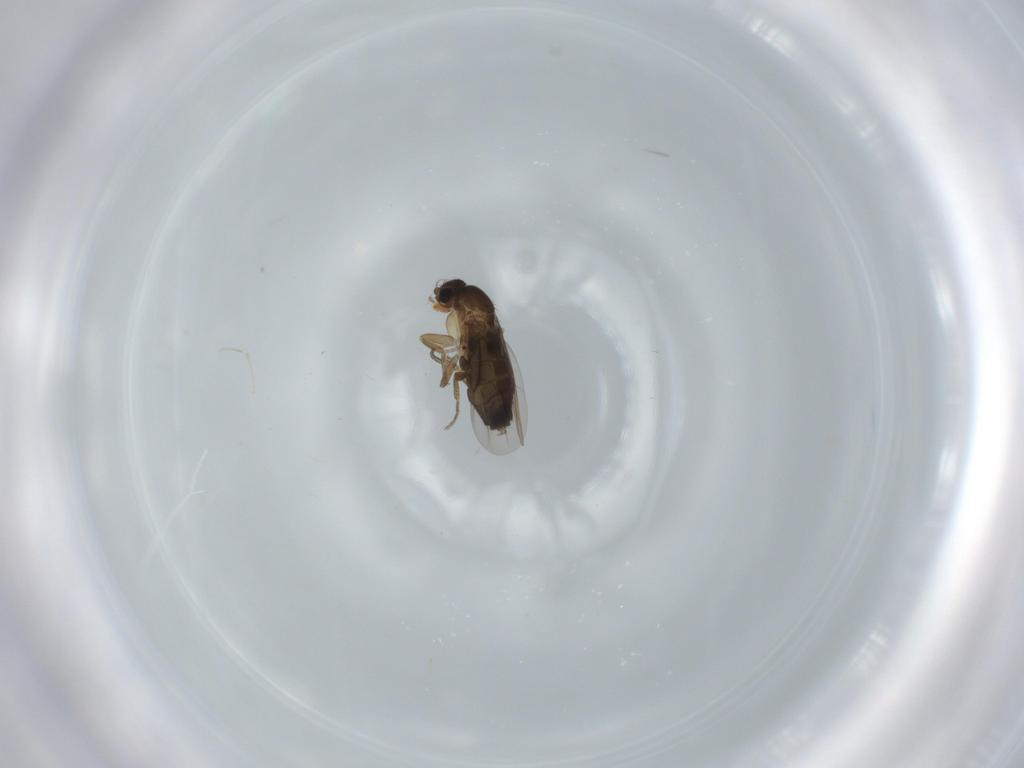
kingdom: Animalia
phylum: Arthropoda
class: Insecta
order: Diptera
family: Phoridae
